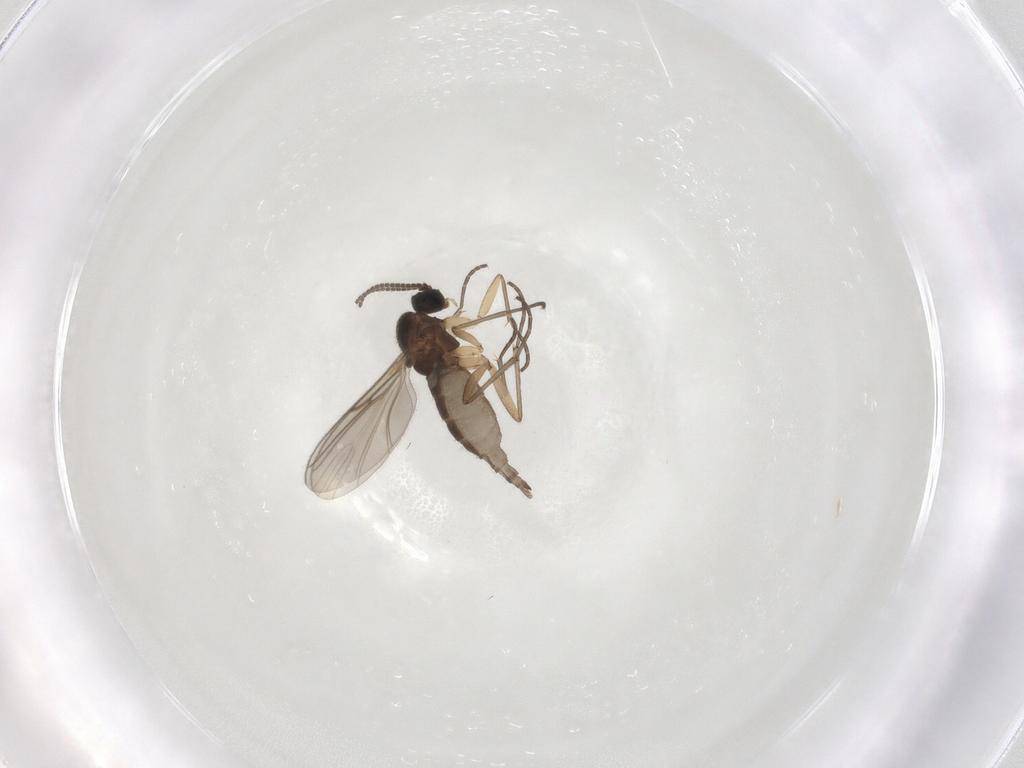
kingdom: Animalia
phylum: Arthropoda
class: Insecta
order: Diptera
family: Sciaridae
